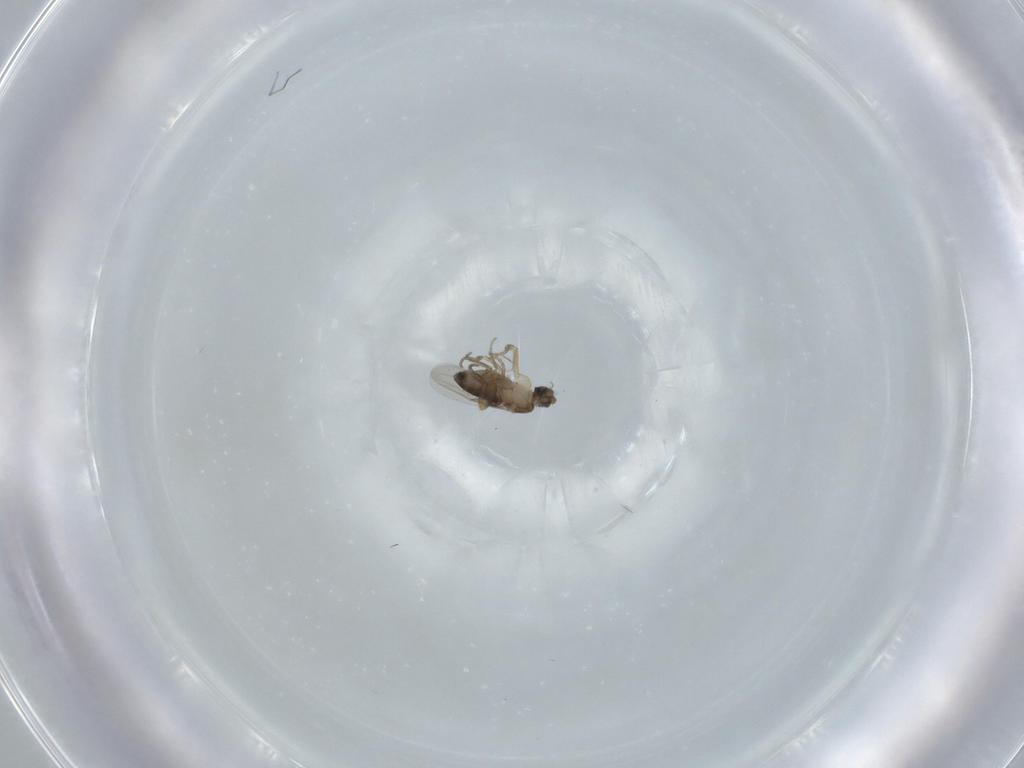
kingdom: Animalia
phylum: Arthropoda
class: Insecta
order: Diptera
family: Phoridae
